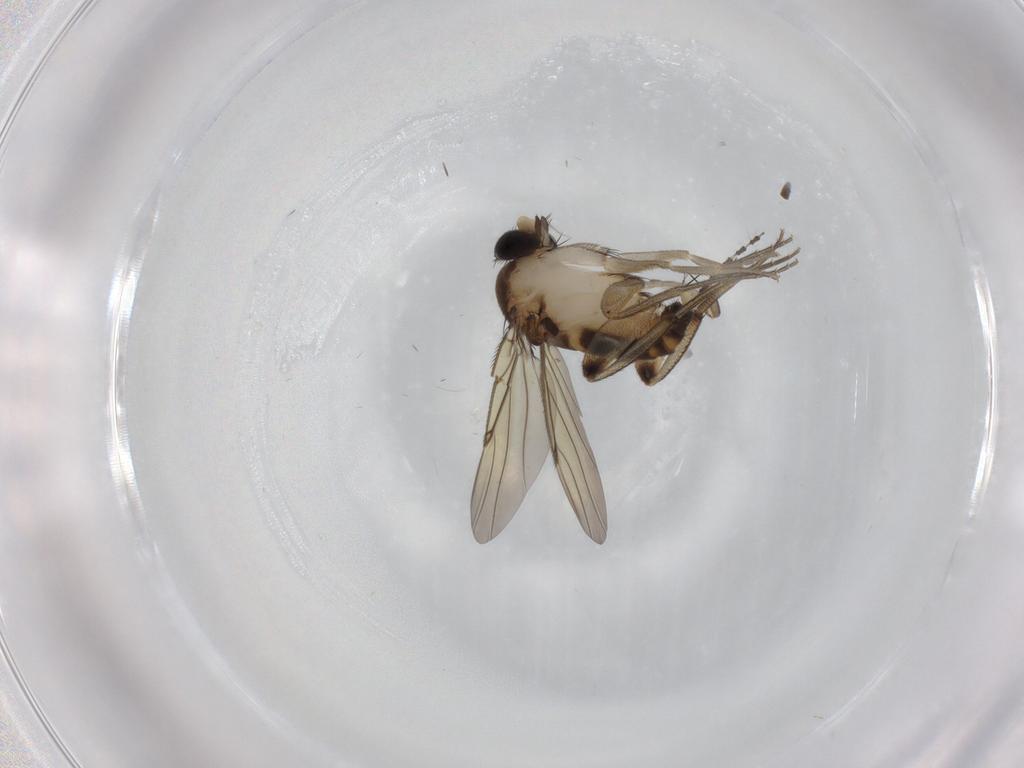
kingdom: Animalia
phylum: Arthropoda
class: Insecta
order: Diptera
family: Phoridae
